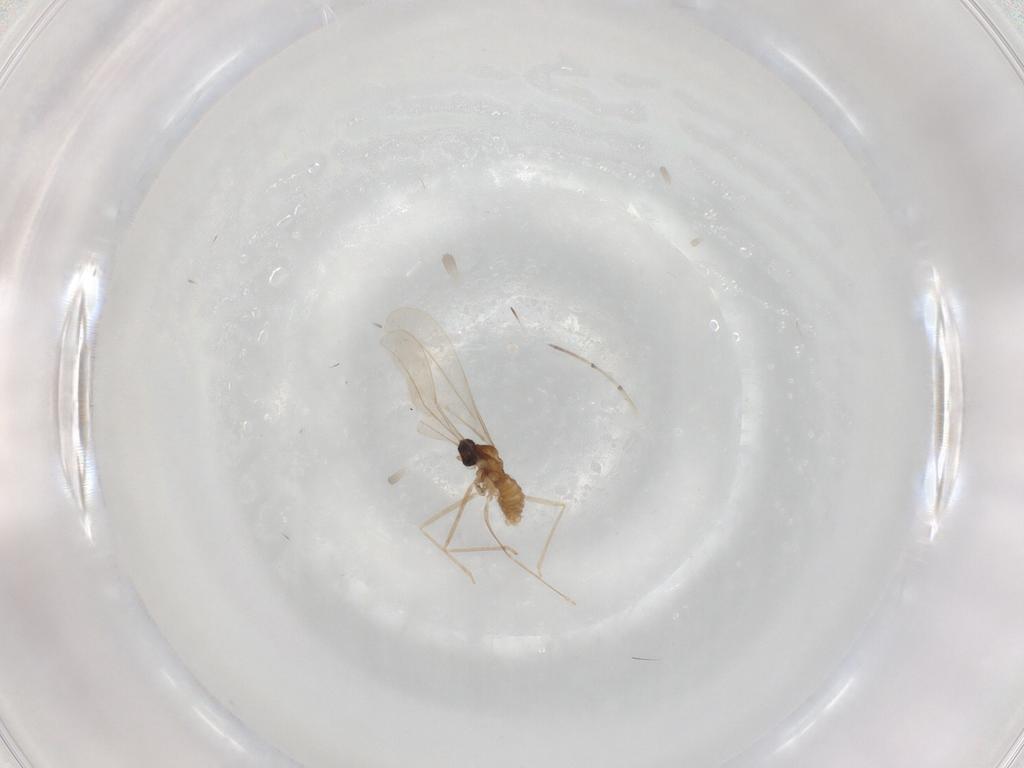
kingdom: Animalia
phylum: Arthropoda
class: Insecta
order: Diptera
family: Cecidomyiidae
